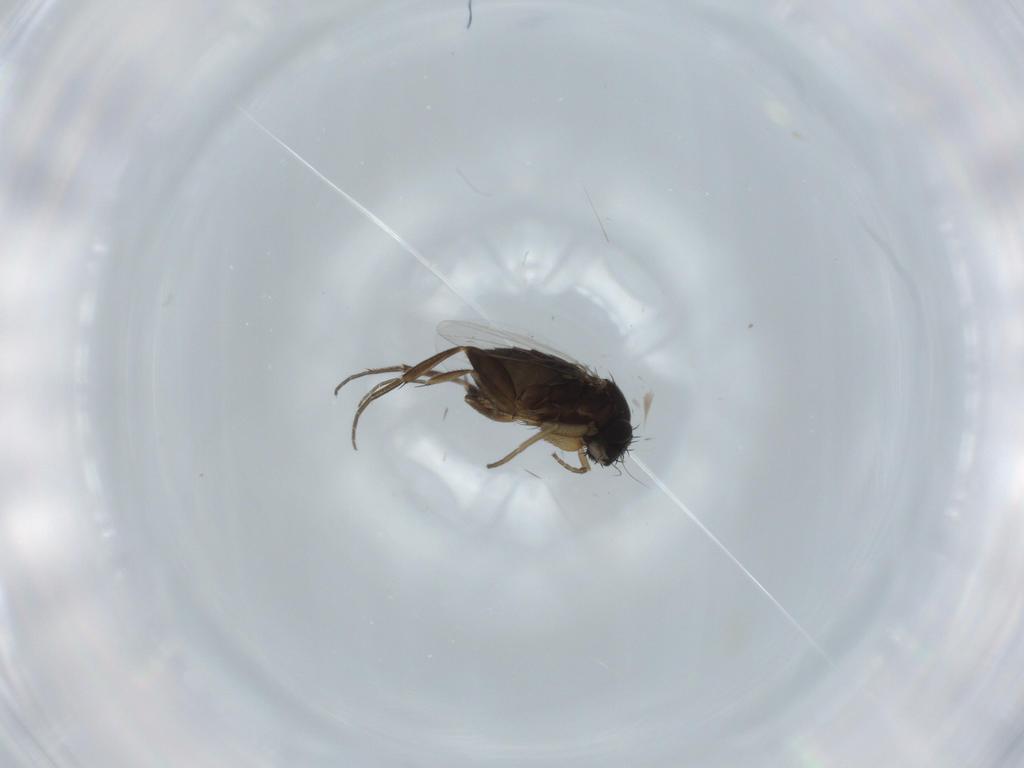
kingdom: Animalia
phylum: Arthropoda
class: Insecta
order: Diptera
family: Phoridae
